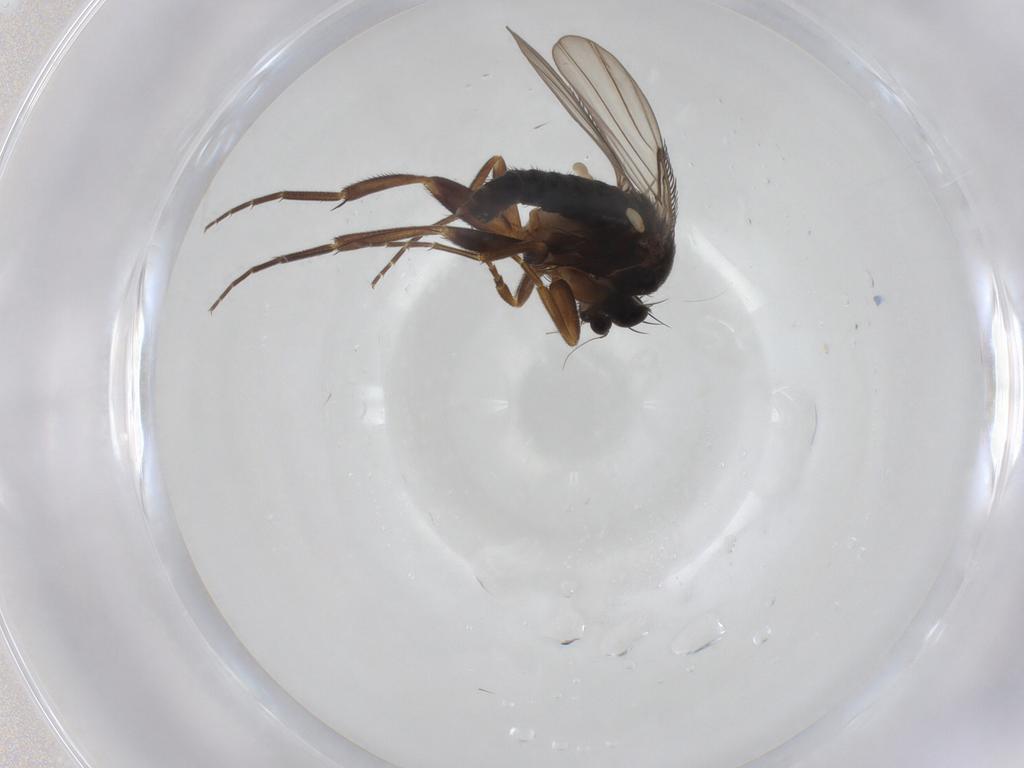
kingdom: Animalia
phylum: Arthropoda
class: Insecta
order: Diptera
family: Phoridae
